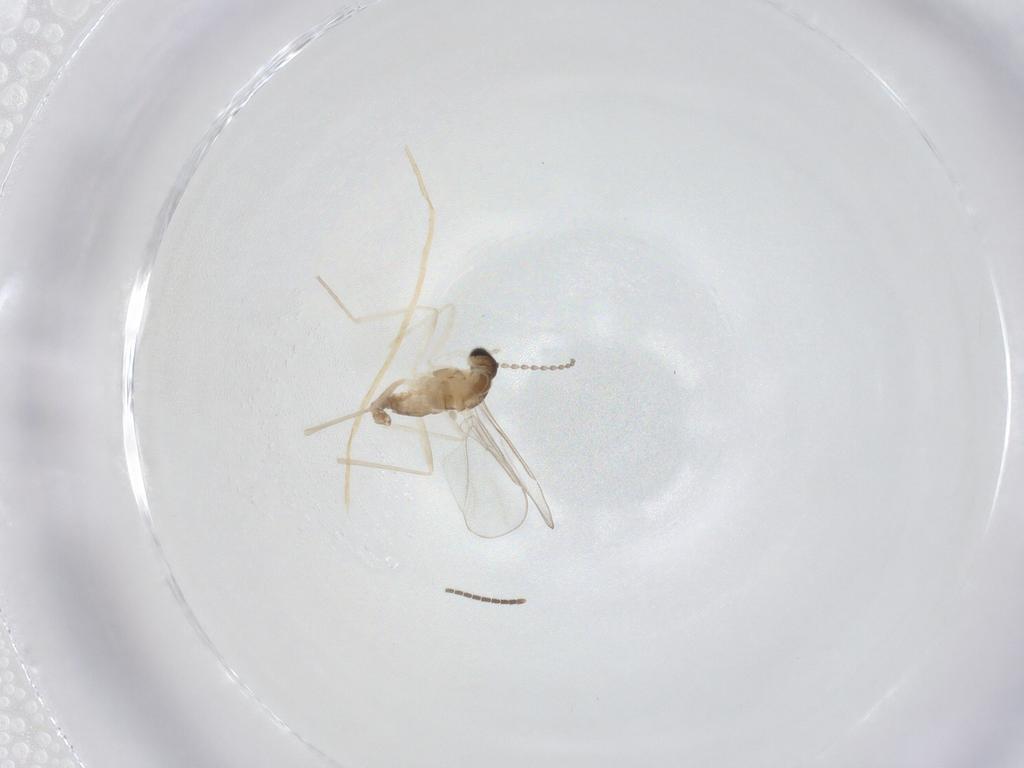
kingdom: Animalia
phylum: Arthropoda
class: Insecta
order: Diptera
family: Cecidomyiidae
